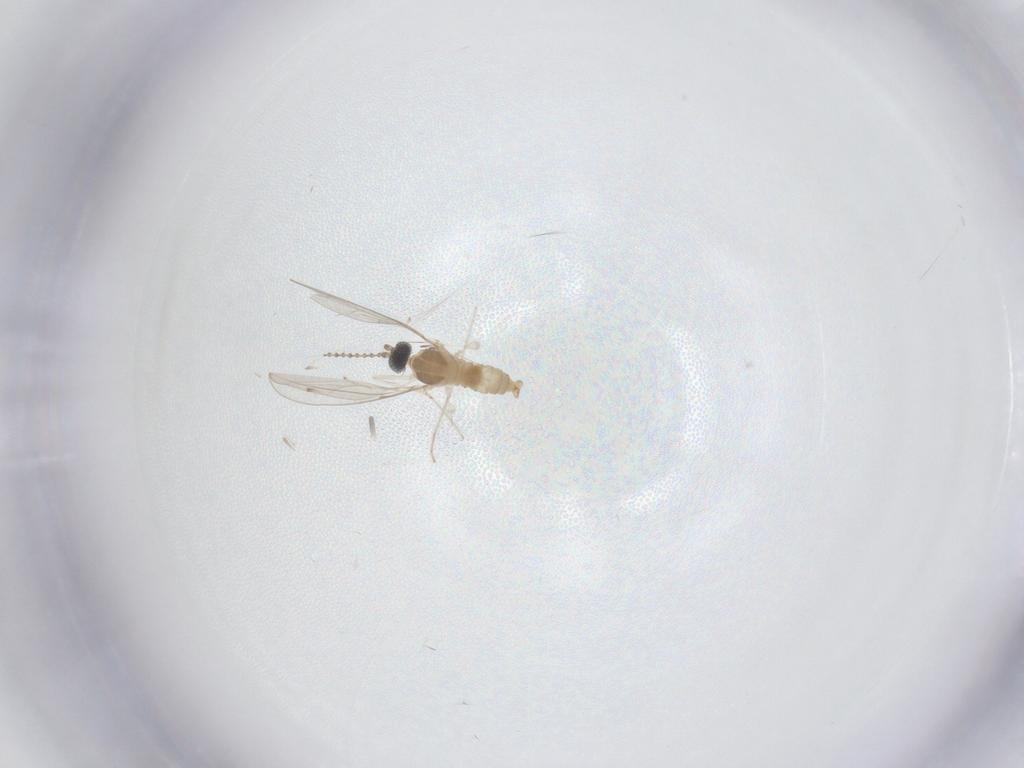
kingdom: Animalia
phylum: Arthropoda
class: Insecta
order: Diptera
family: Cecidomyiidae
